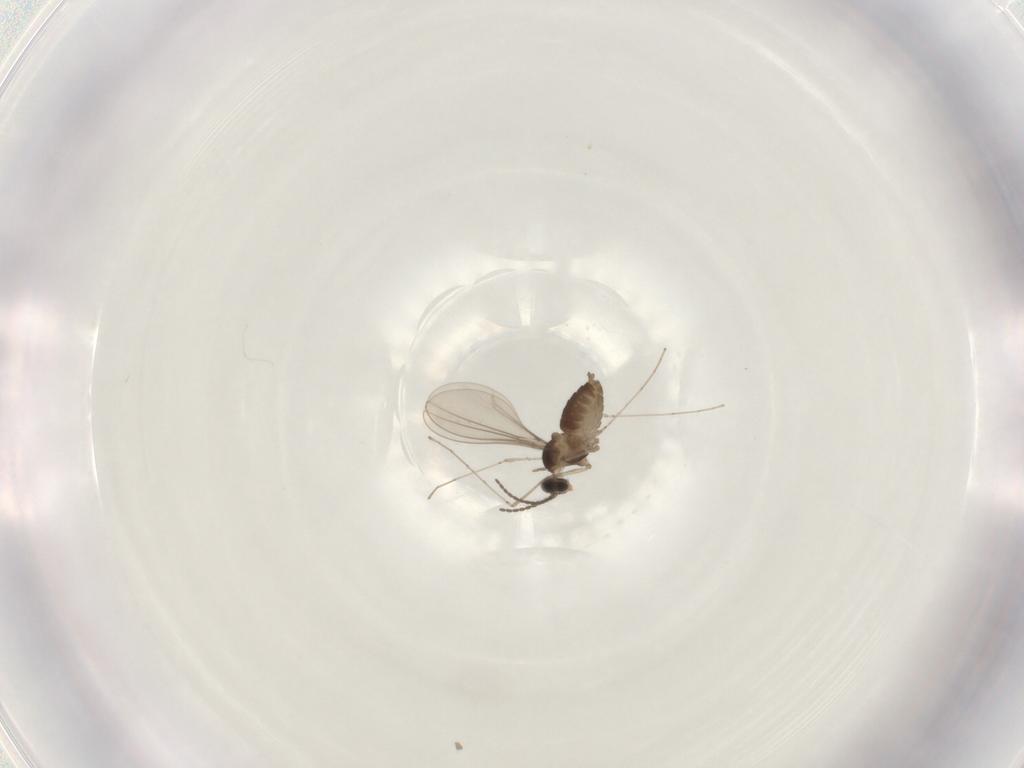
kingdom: Animalia
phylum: Arthropoda
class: Insecta
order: Diptera
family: Cecidomyiidae
